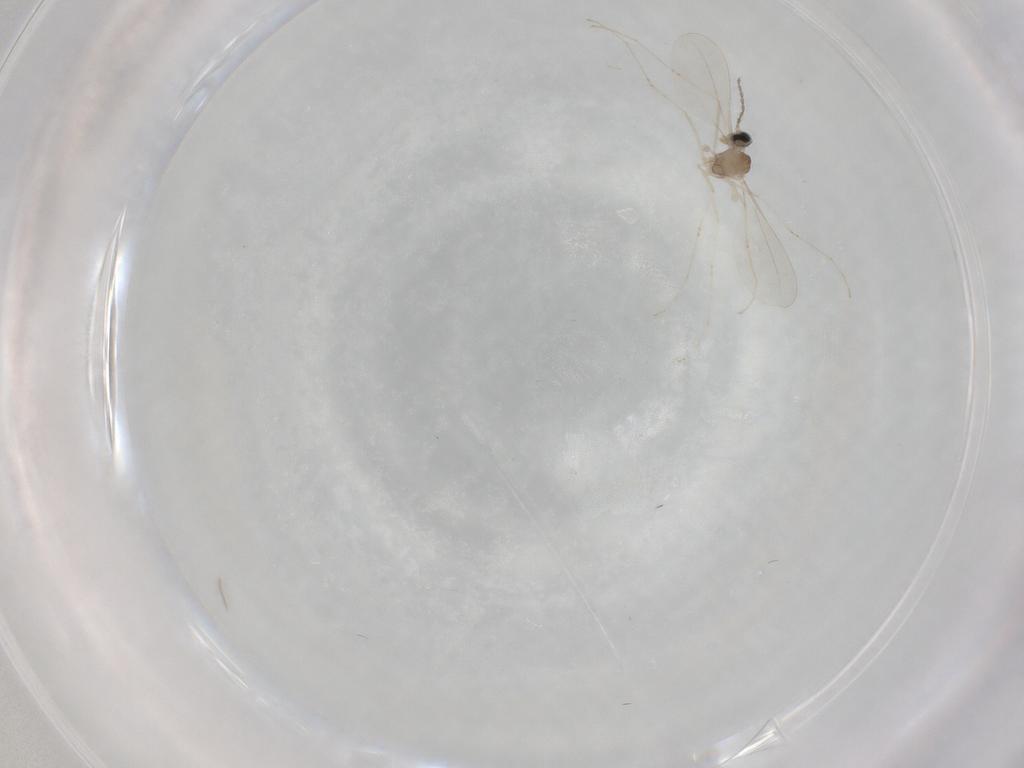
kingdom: Animalia
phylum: Arthropoda
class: Insecta
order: Diptera
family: Cecidomyiidae
